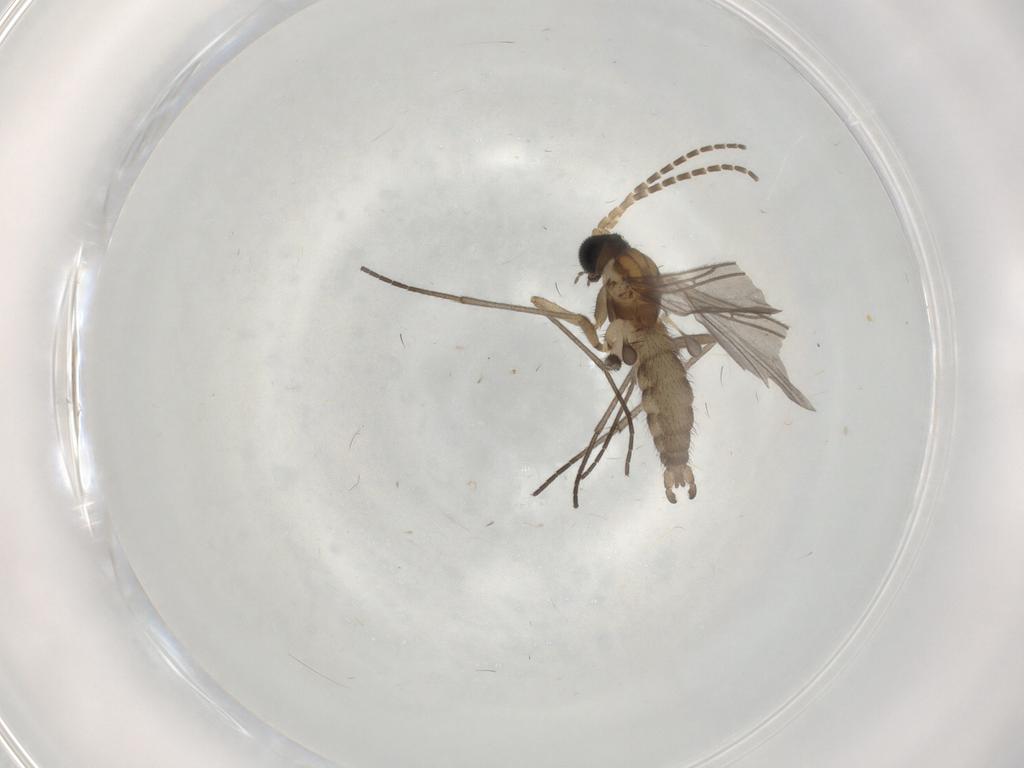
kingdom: Animalia
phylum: Arthropoda
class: Insecta
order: Diptera
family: Sciaridae
